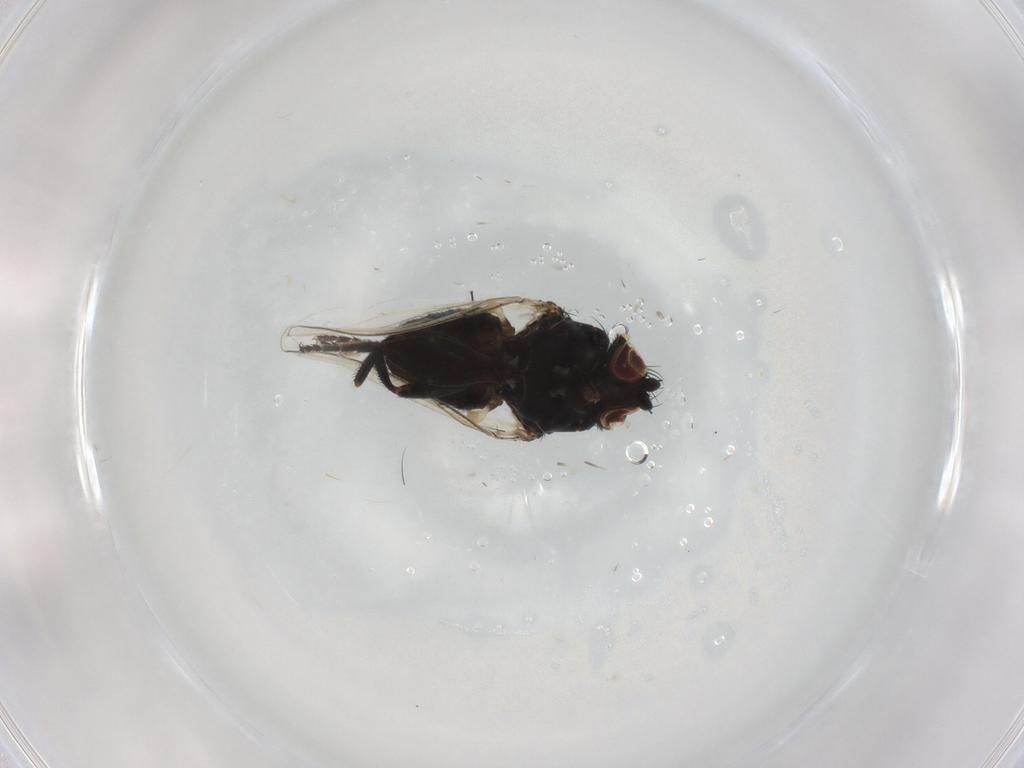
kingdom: Animalia
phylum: Arthropoda
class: Insecta
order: Diptera
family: Milichiidae
